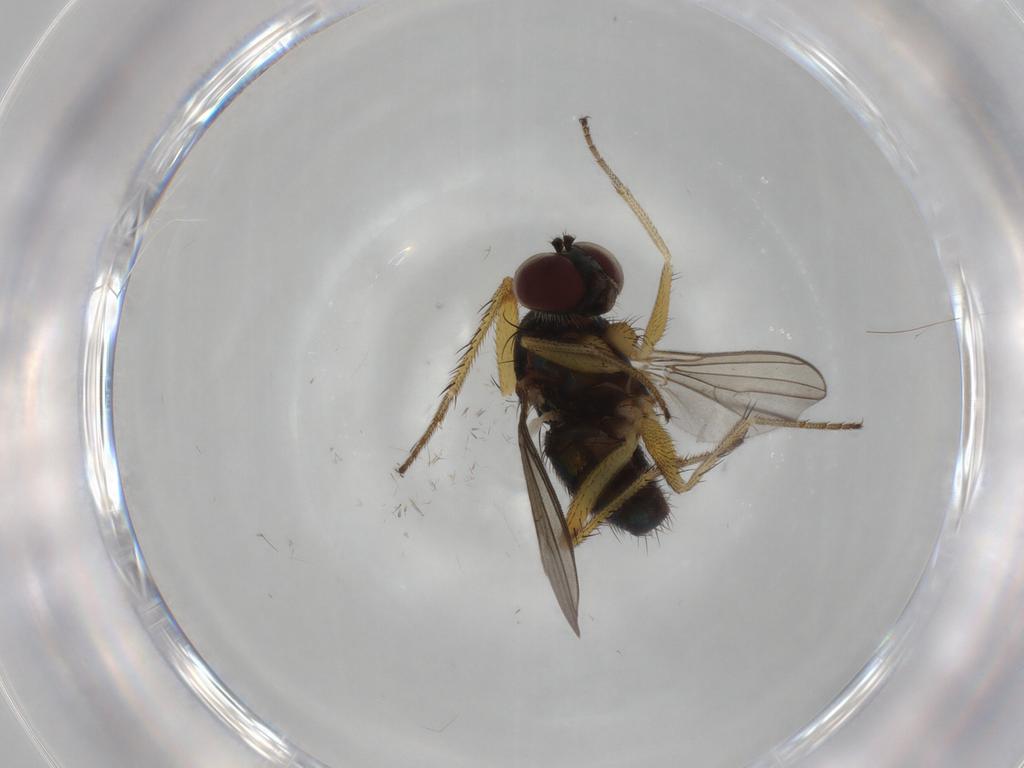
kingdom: Animalia
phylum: Arthropoda
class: Insecta
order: Diptera
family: Dolichopodidae
